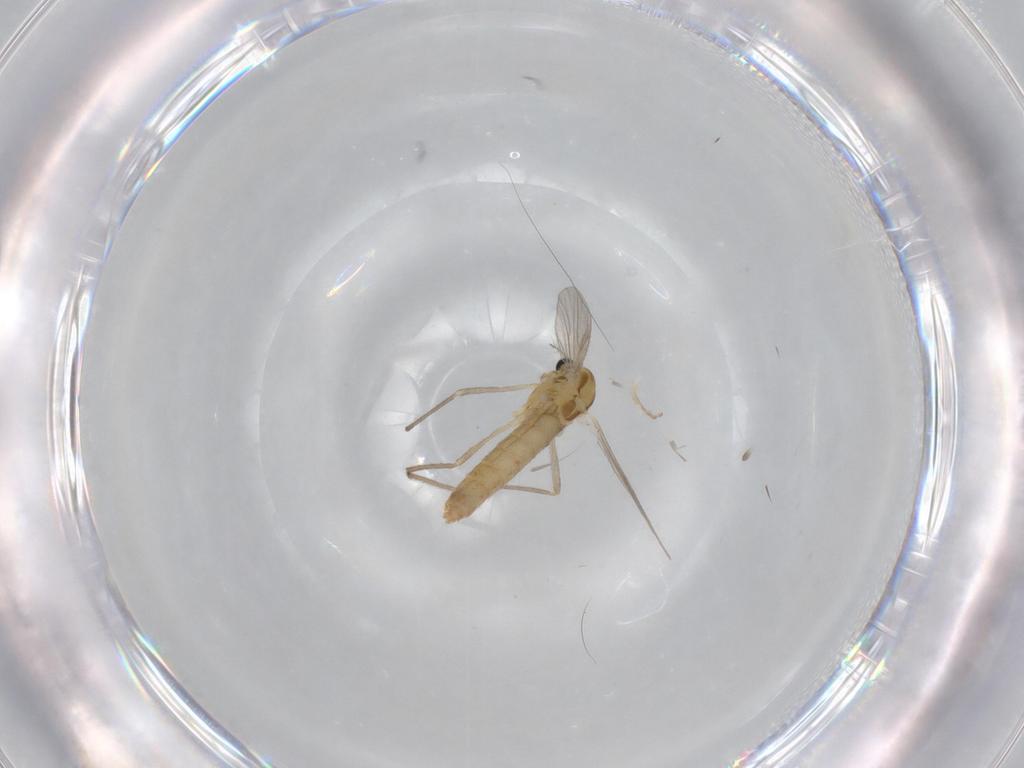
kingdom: Animalia
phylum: Arthropoda
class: Insecta
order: Diptera
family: Chironomidae
